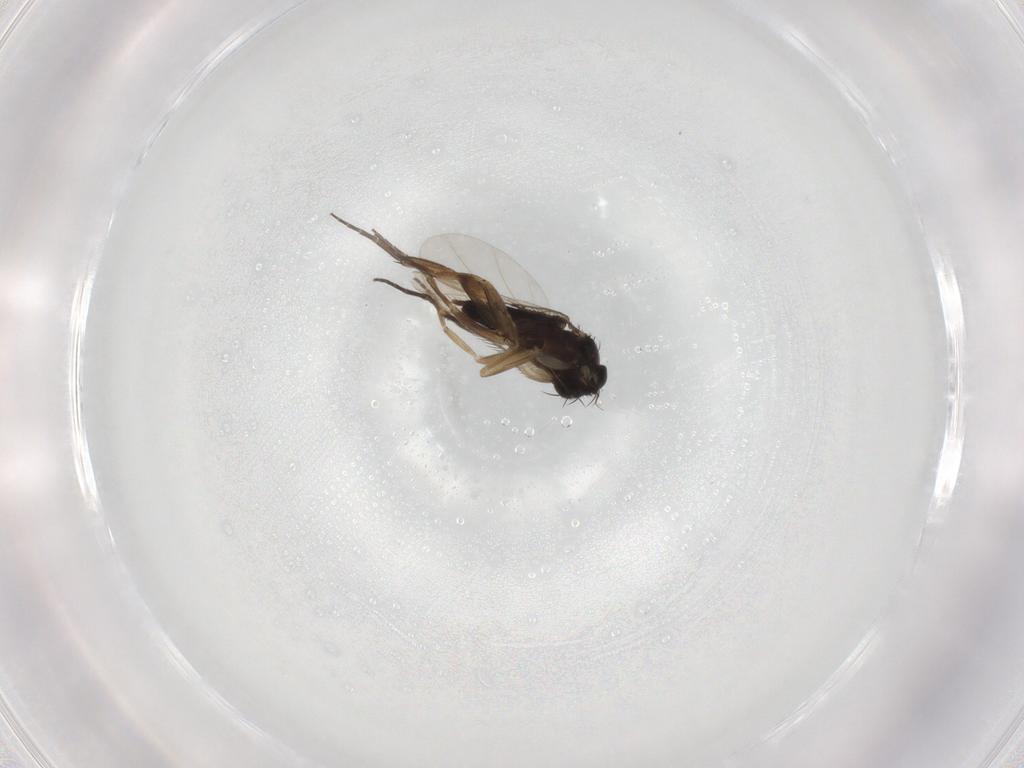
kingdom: Animalia
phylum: Arthropoda
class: Insecta
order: Diptera
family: Phoridae
